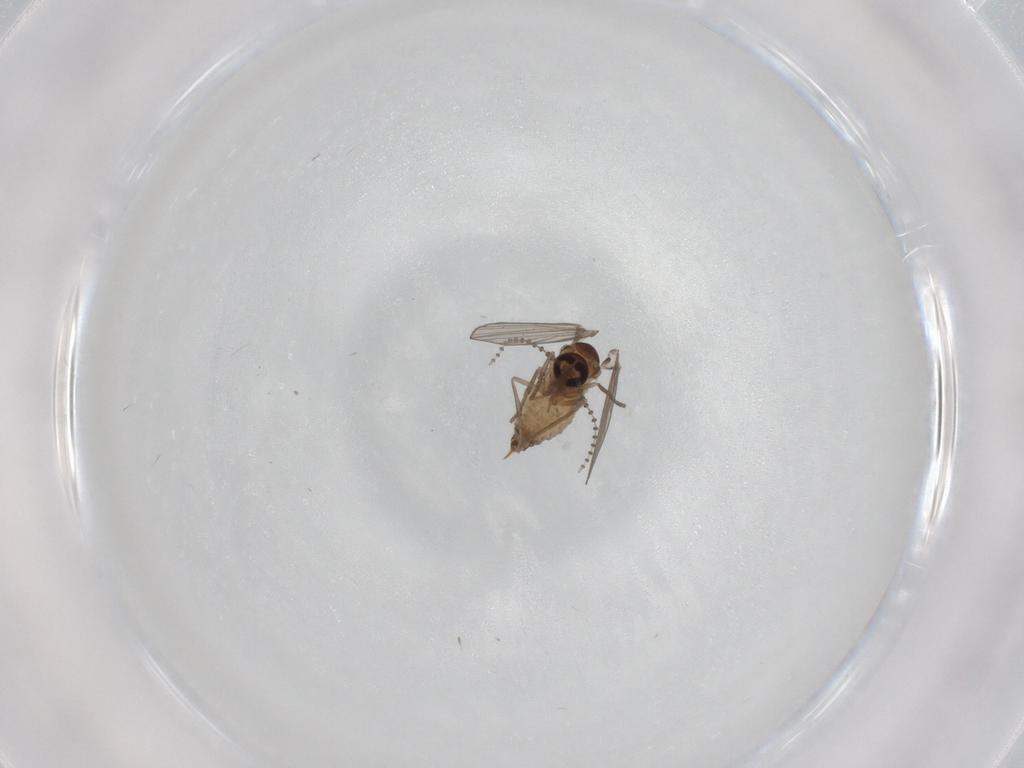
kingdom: Animalia
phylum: Arthropoda
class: Insecta
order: Diptera
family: Psychodidae
